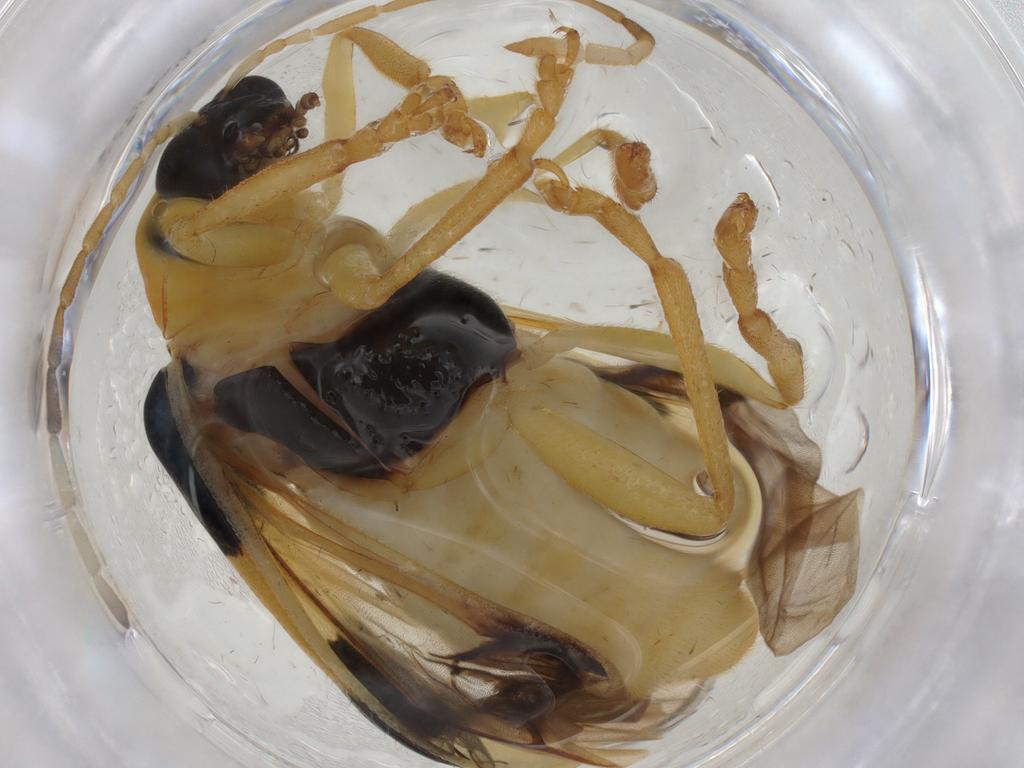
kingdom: Animalia
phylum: Arthropoda
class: Insecta
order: Coleoptera
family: Chrysomelidae
